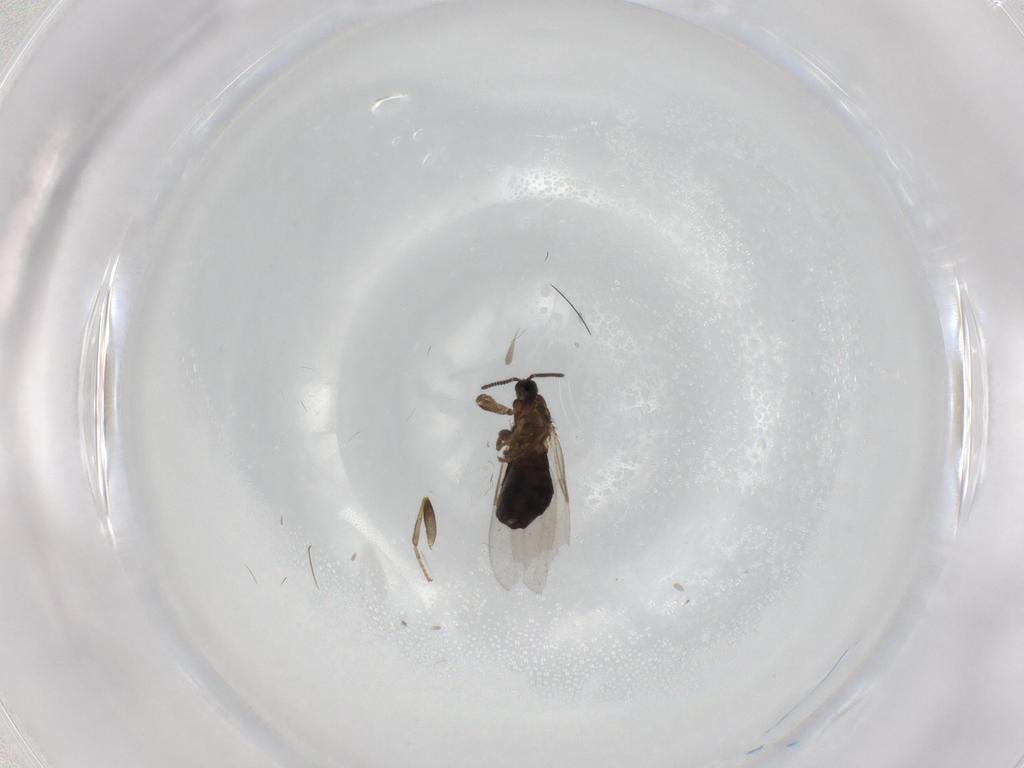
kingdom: Animalia
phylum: Arthropoda
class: Insecta
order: Diptera
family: Scatopsidae
